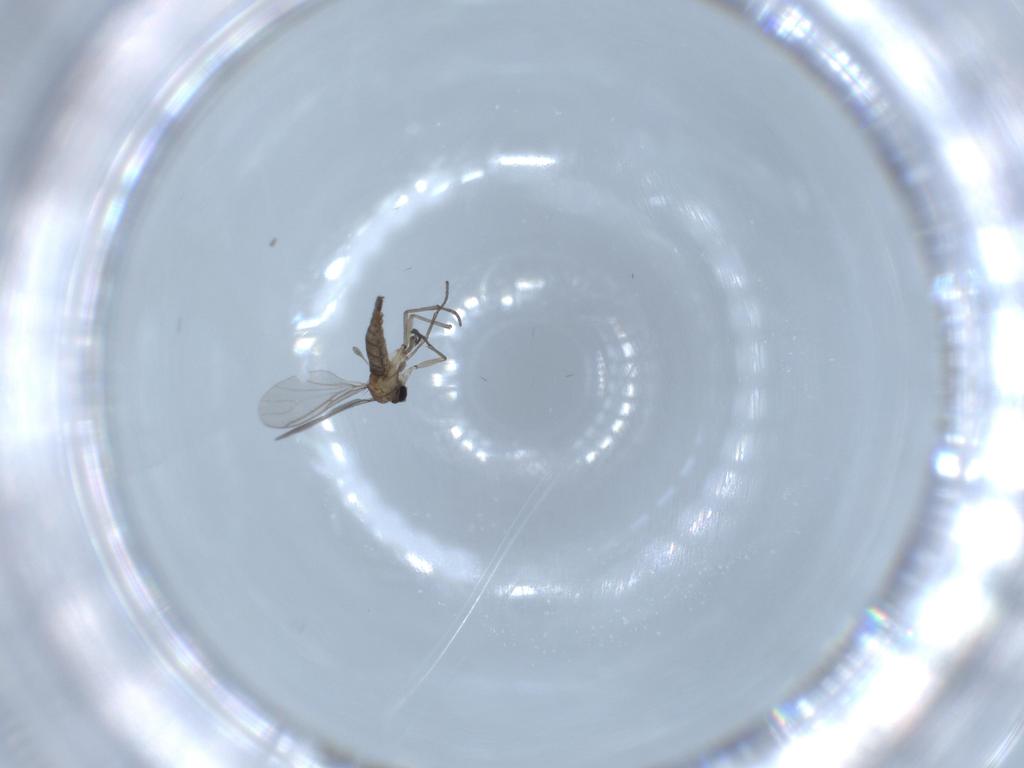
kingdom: Animalia
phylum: Arthropoda
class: Insecta
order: Diptera
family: Sciaridae
